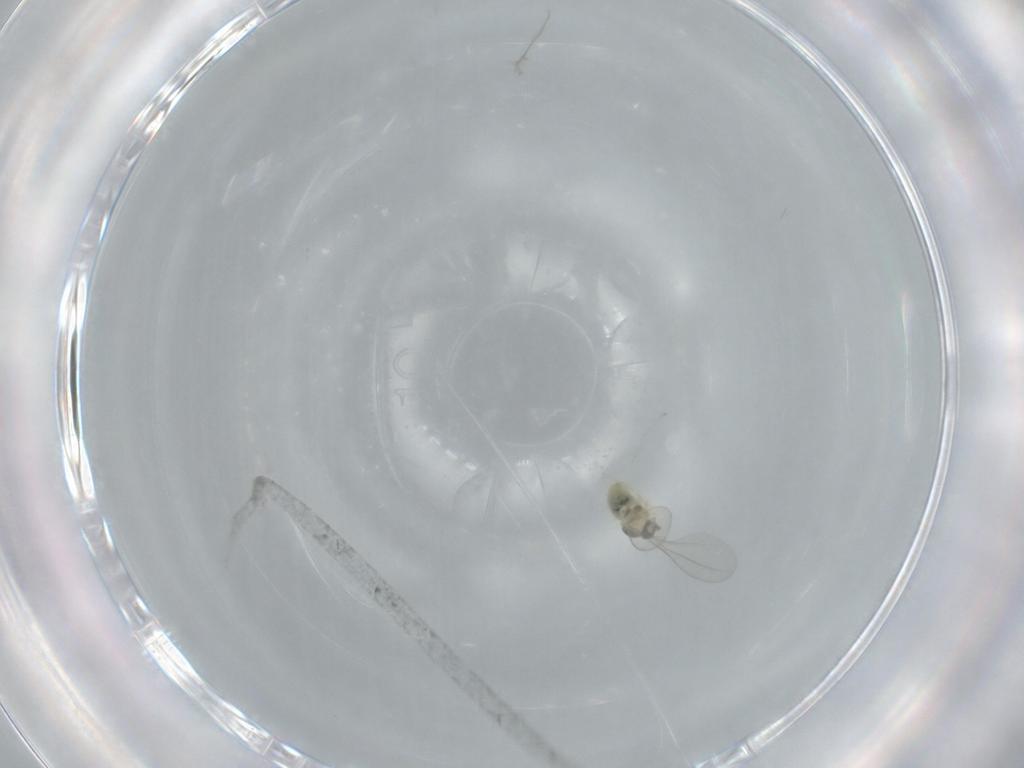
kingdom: Animalia
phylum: Arthropoda
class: Insecta
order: Diptera
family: Cecidomyiidae
